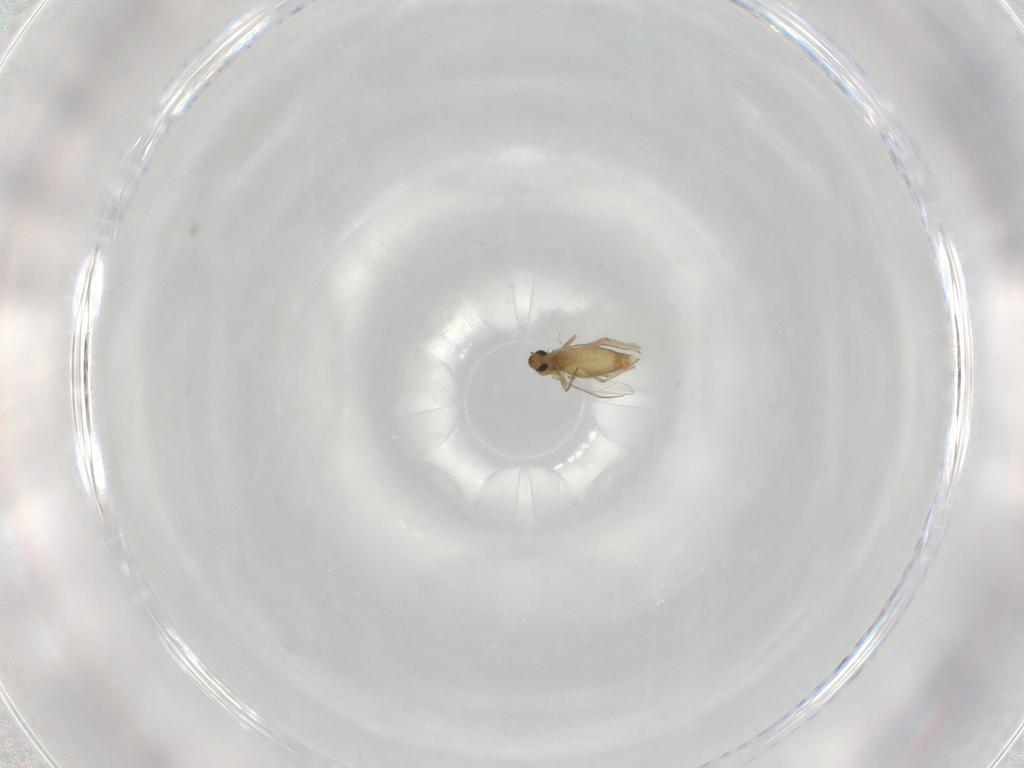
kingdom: Animalia
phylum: Arthropoda
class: Insecta
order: Diptera
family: Chironomidae
